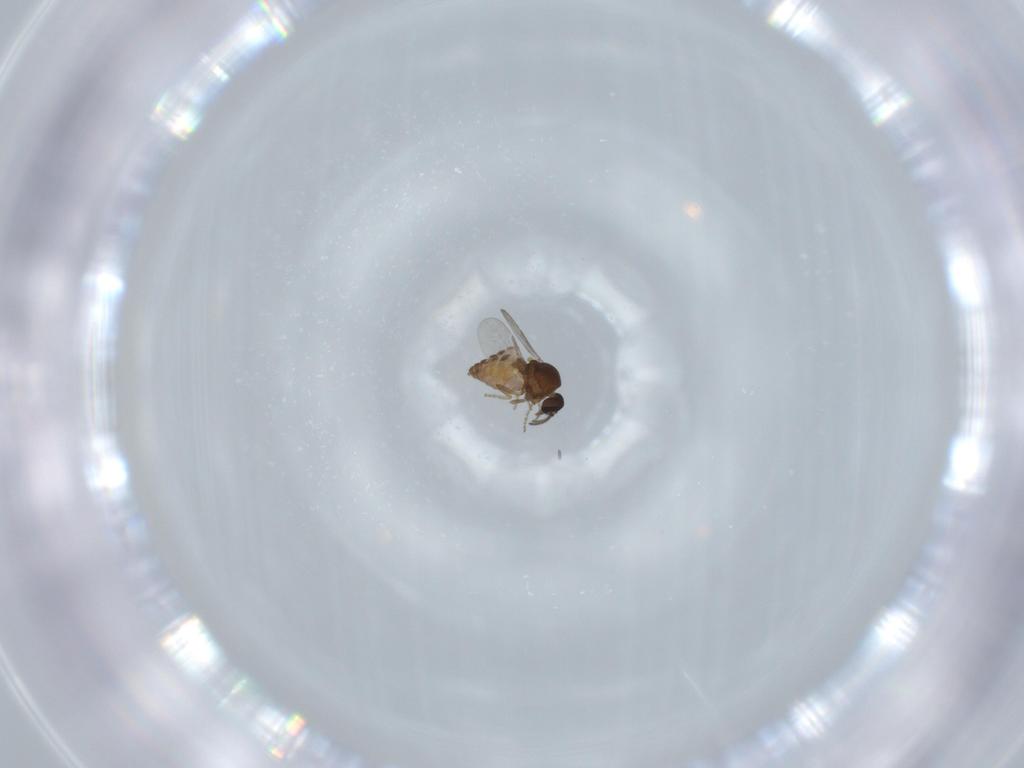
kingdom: Animalia
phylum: Arthropoda
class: Insecta
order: Diptera
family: Ceratopogonidae
